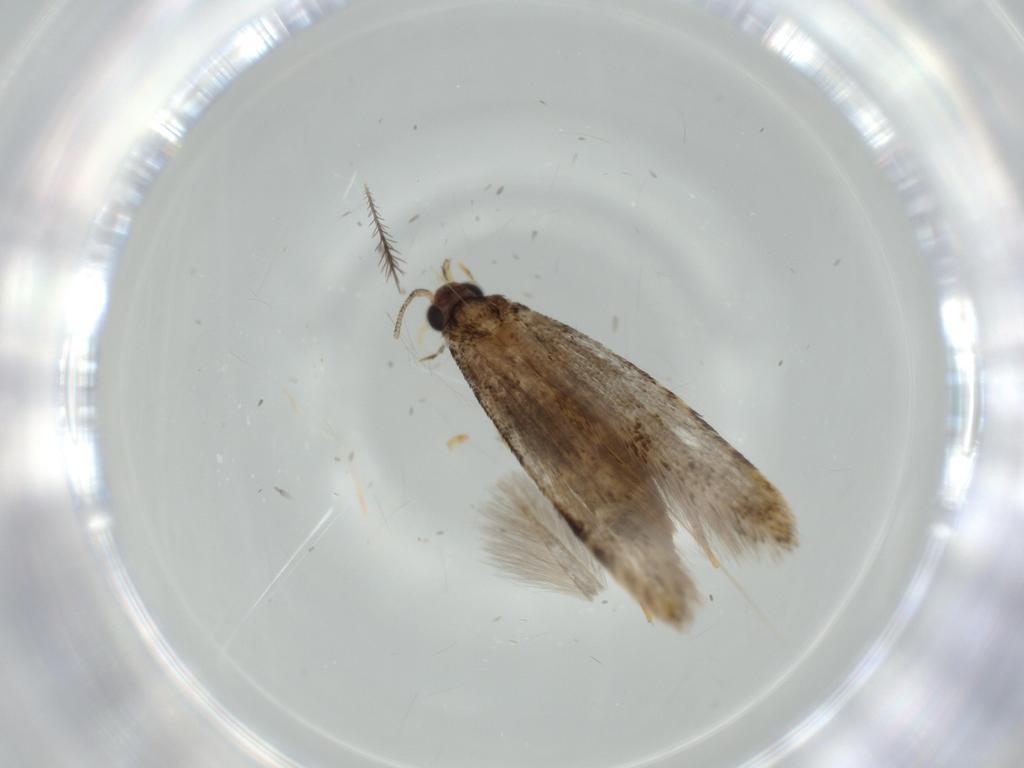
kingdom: Animalia
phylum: Arthropoda
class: Insecta
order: Lepidoptera
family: Tineidae
